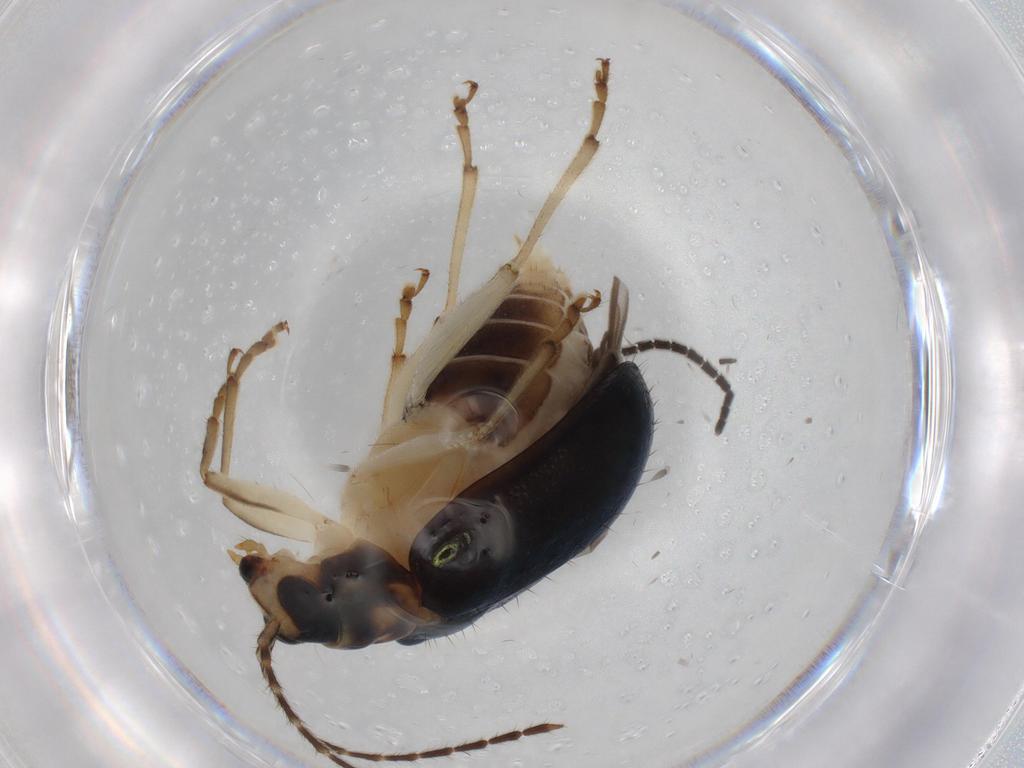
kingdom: Animalia
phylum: Arthropoda
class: Insecta
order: Coleoptera
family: Chrysomelidae
